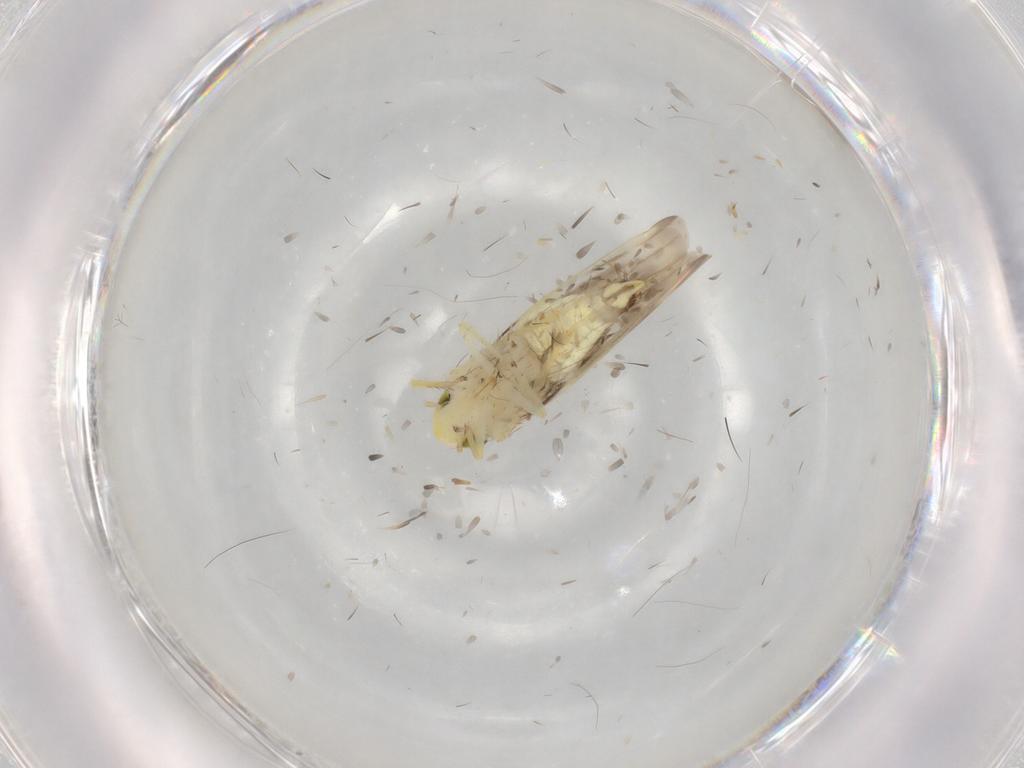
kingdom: Animalia
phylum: Arthropoda
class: Insecta
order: Hemiptera
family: Cicadellidae
